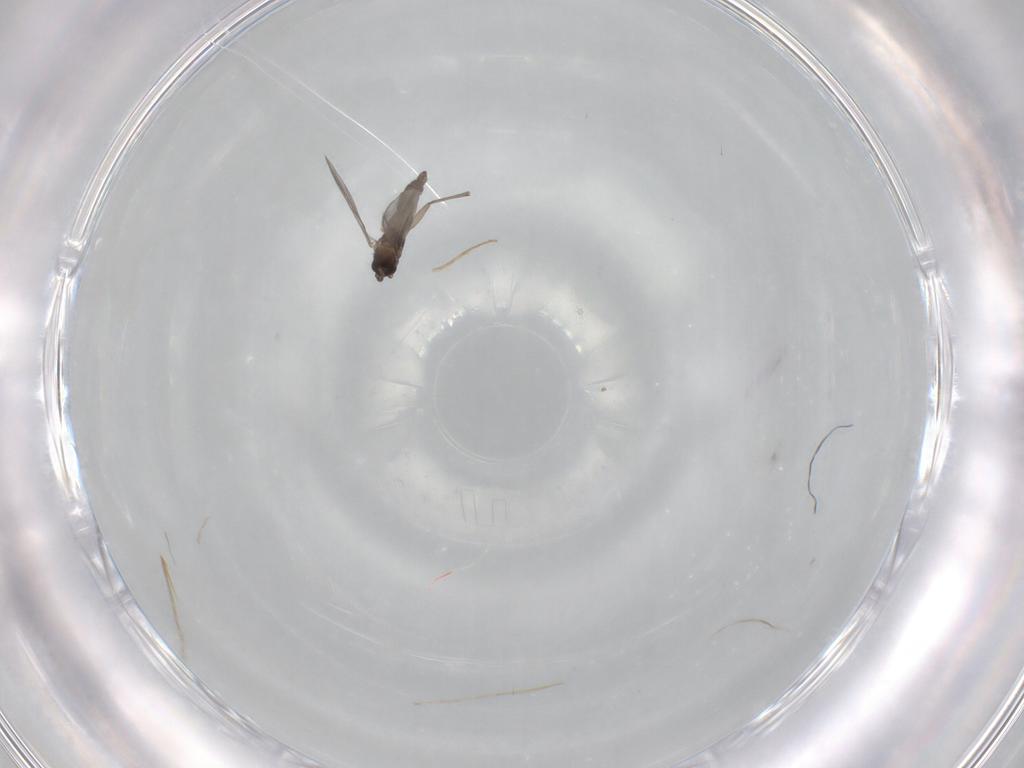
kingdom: Animalia
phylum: Arthropoda
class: Insecta
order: Diptera
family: Sciaridae
